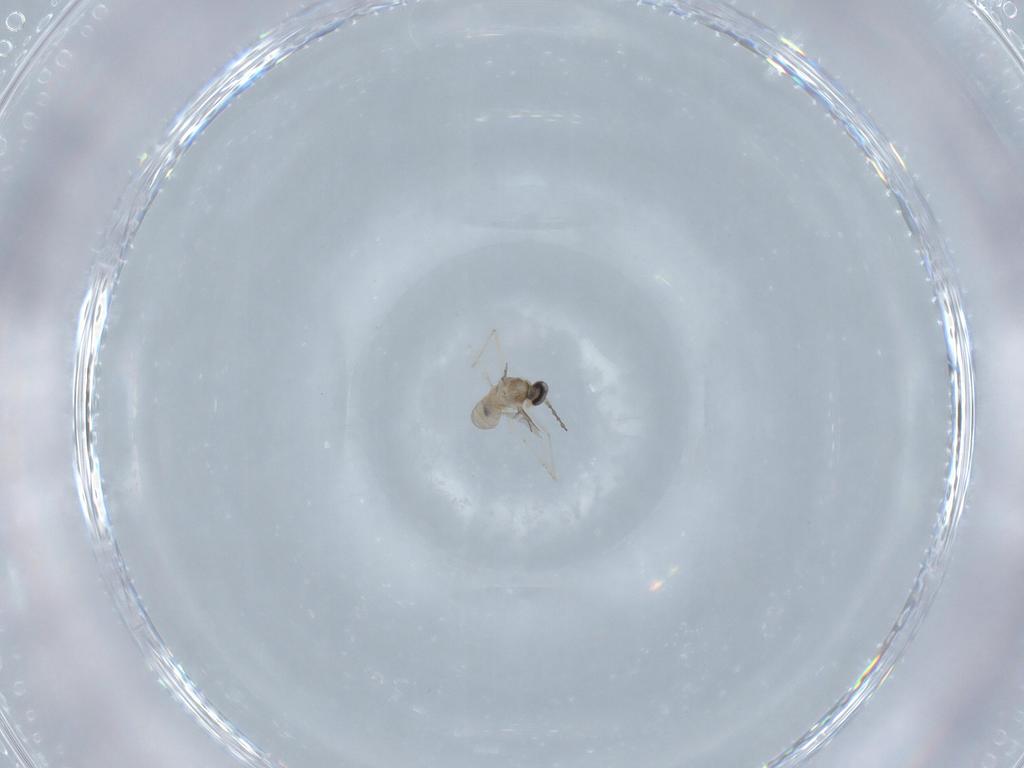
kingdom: Animalia
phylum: Arthropoda
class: Insecta
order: Diptera
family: Cecidomyiidae
